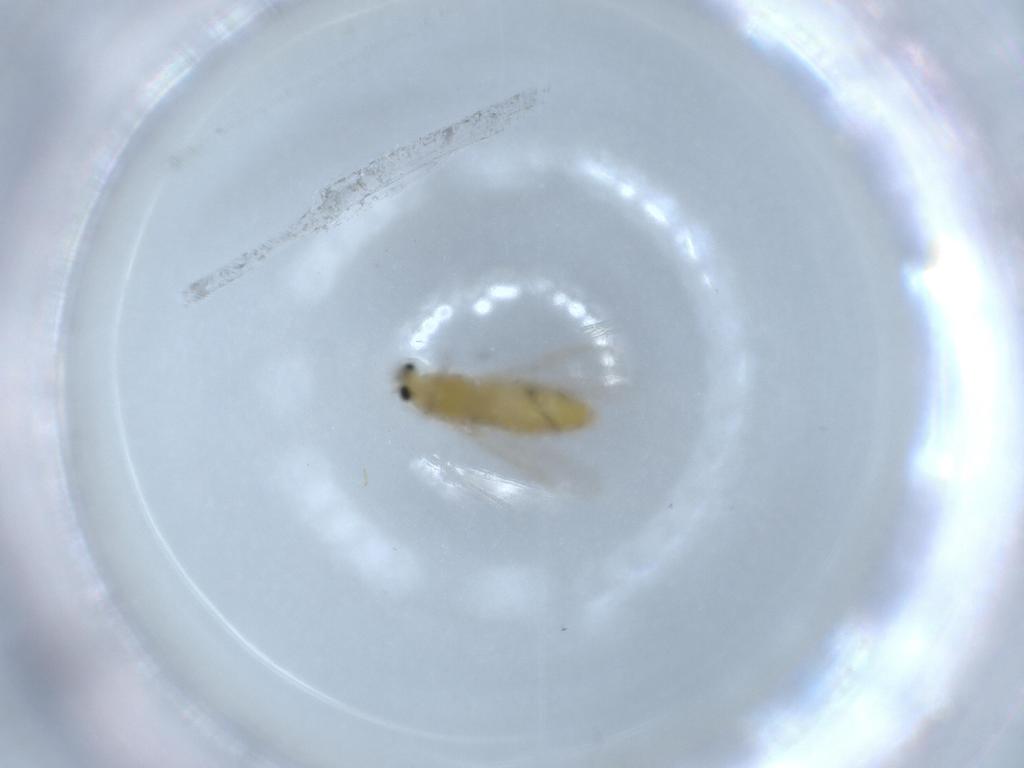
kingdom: Animalia
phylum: Arthropoda
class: Insecta
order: Diptera
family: Chironomidae
